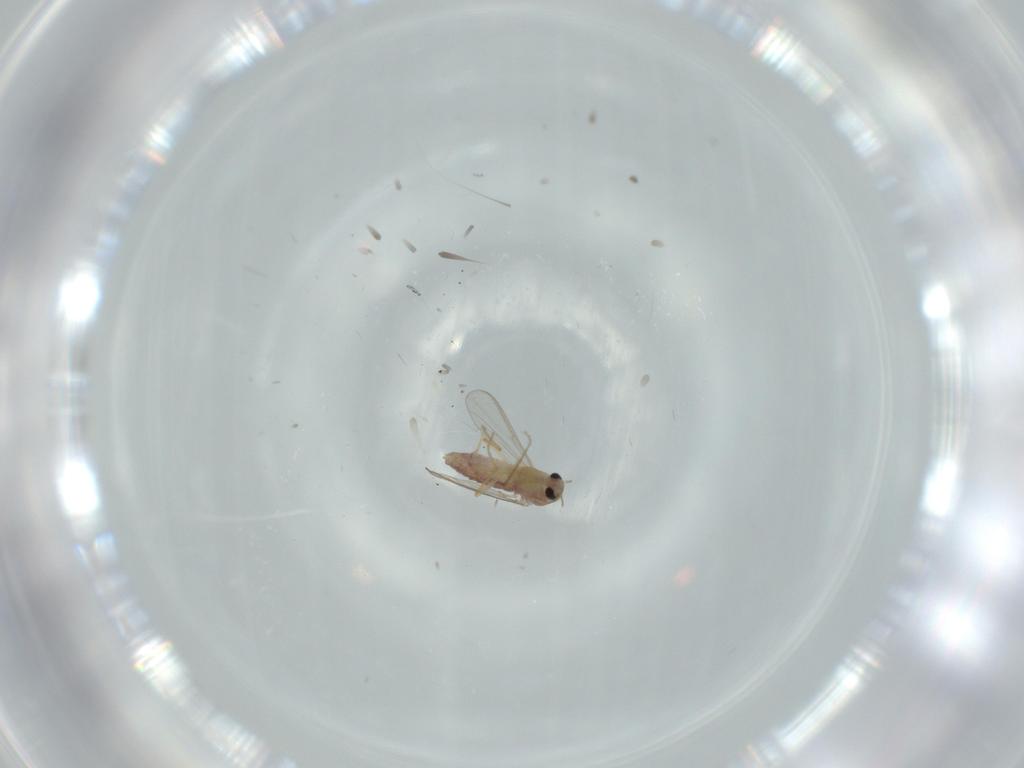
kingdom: Animalia
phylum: Arthropoda
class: Insecta
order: Diptera
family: Chironomidae
